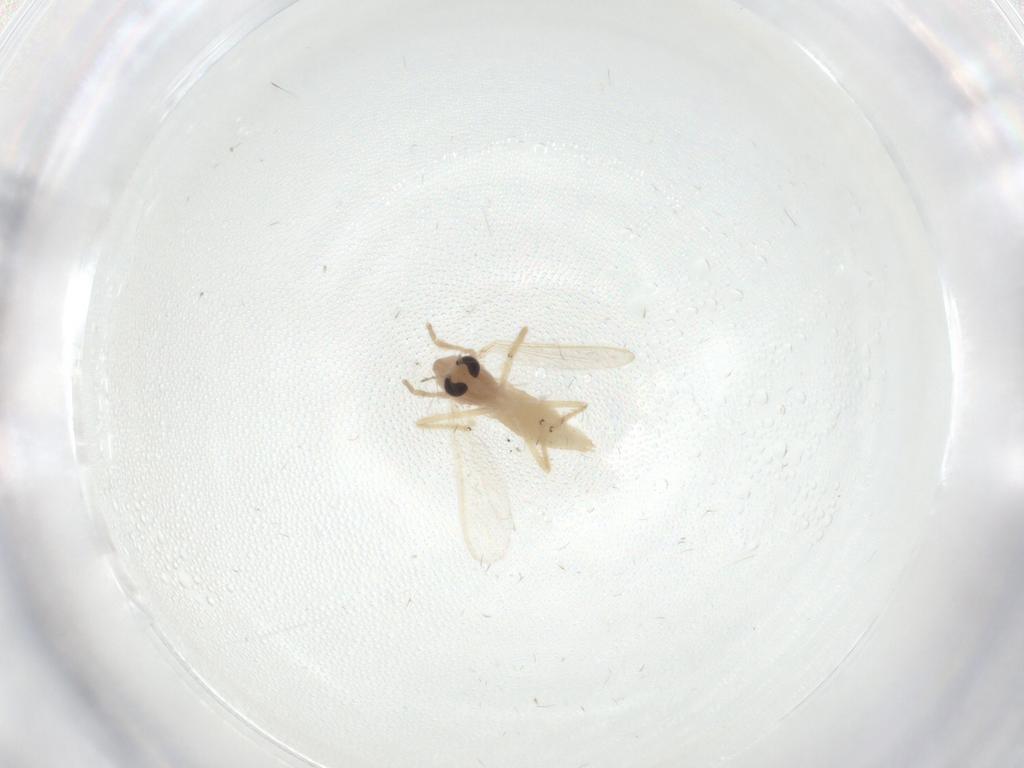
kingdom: Animalia
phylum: Arthropoda
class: Insecta
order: Diptera
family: Chironomidae
